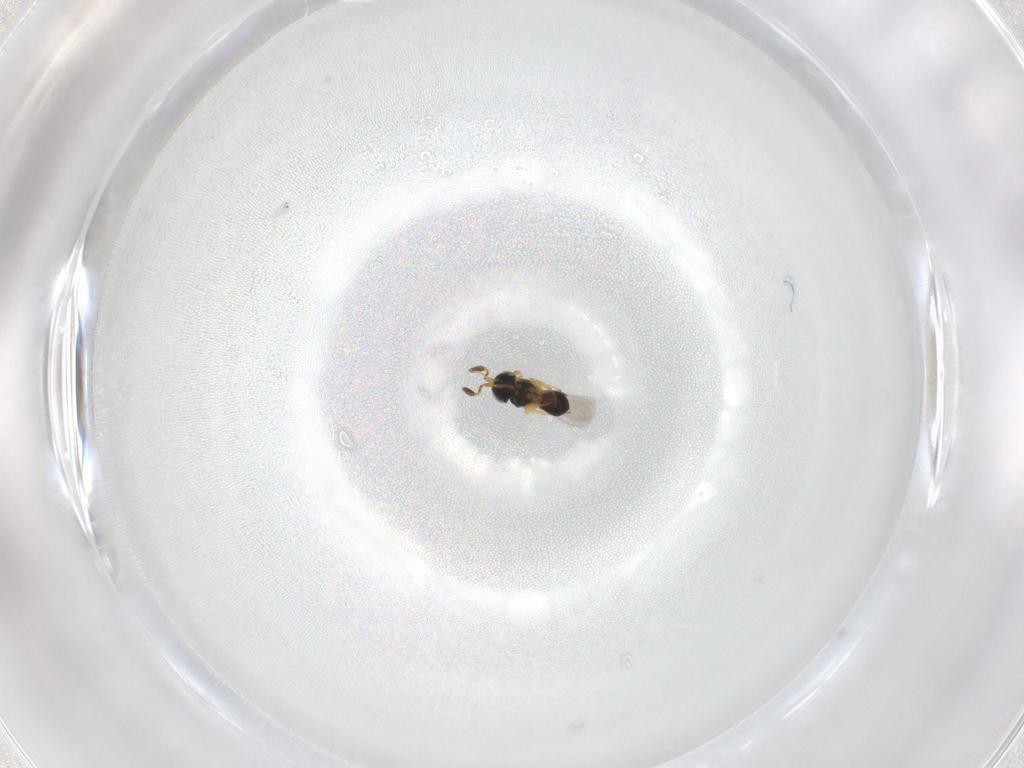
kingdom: Animalia
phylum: Arthropoda
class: Insecta
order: Hymenoptera
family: Scelionidae
